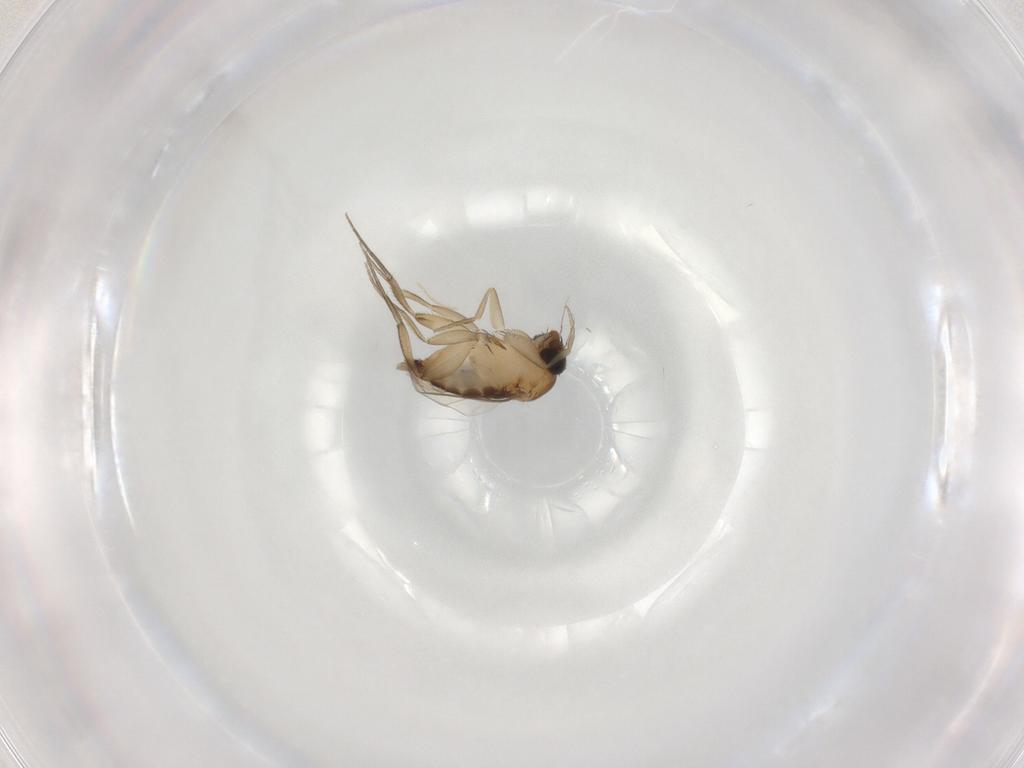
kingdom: Animalia
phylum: Arthropoda
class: Insecta
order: Diptera
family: Phoridae
